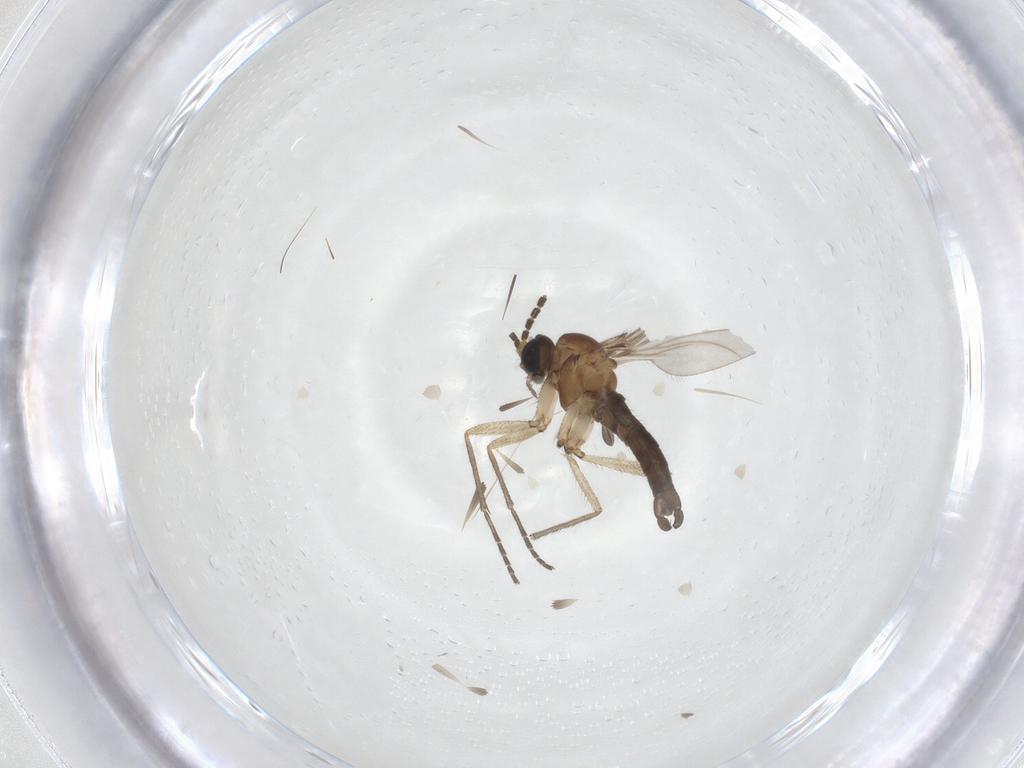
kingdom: Animalia
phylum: Arthropoda
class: Insecta
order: Diptera
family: Sciaridae
